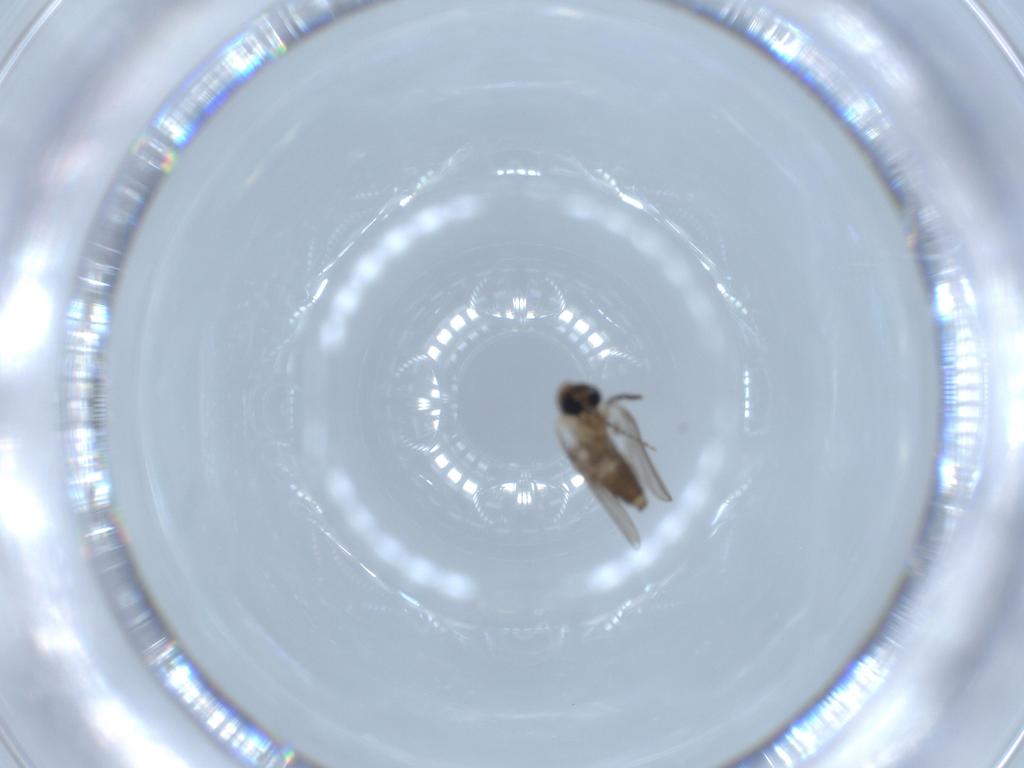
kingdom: Animalia
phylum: Arthropoda
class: Insecta
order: Diptera
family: Psychodidae
